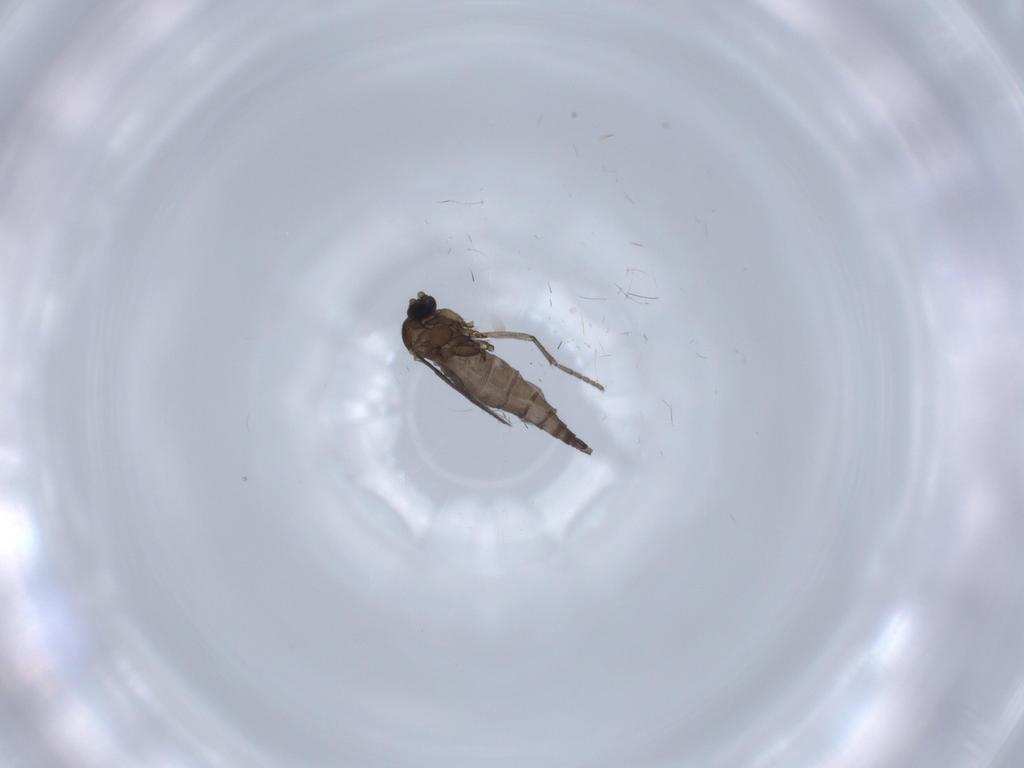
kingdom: Animalia
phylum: Arthropoda
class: Insecta
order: Diptera
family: Sciaridae
